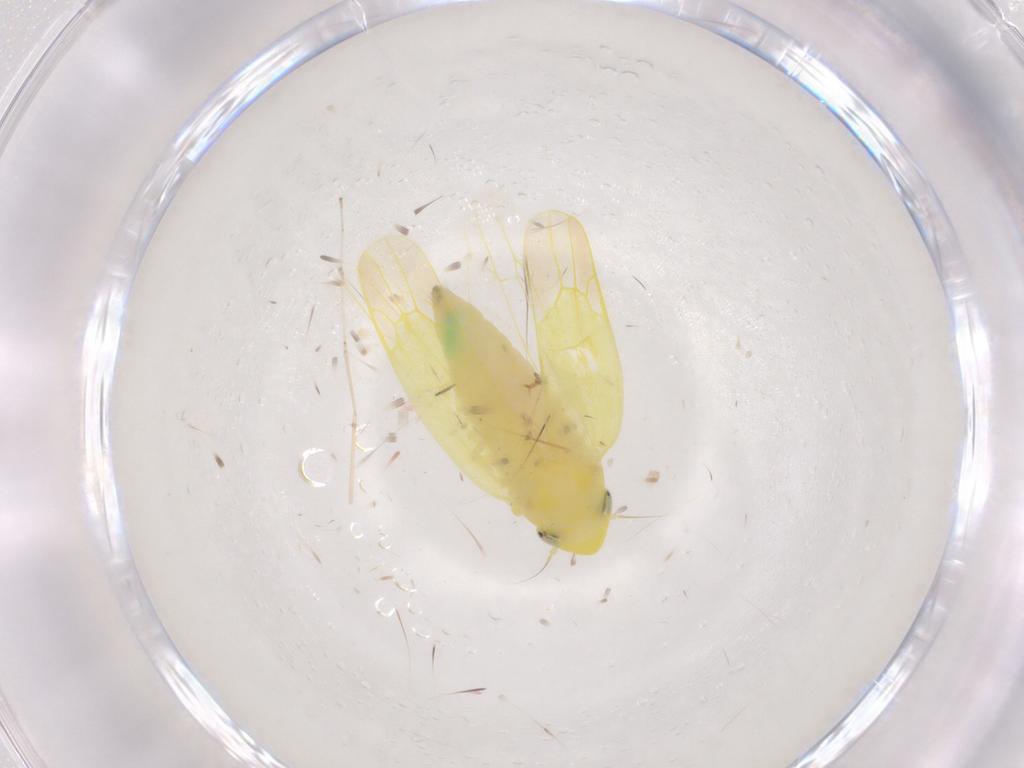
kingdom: Animalia
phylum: Arthropoda
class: Insecta
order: Hemiptera
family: Cicadellidae
